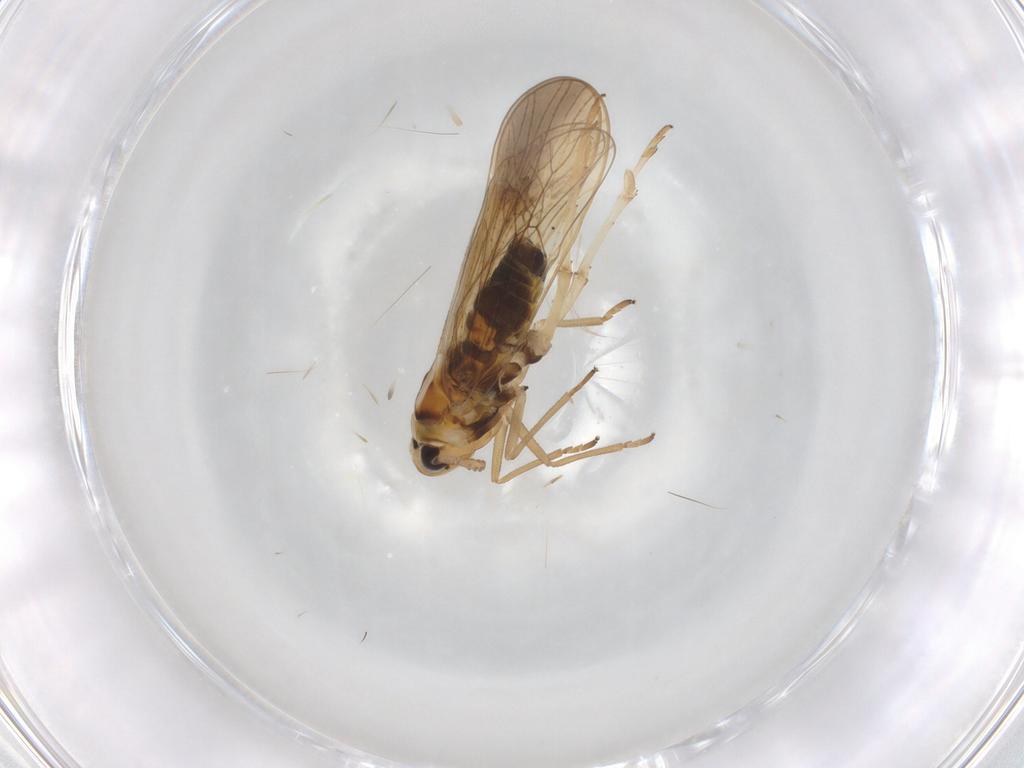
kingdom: Animalia
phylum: Arthropoda
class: Insecta
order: Hemiptera
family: Delphacidae
